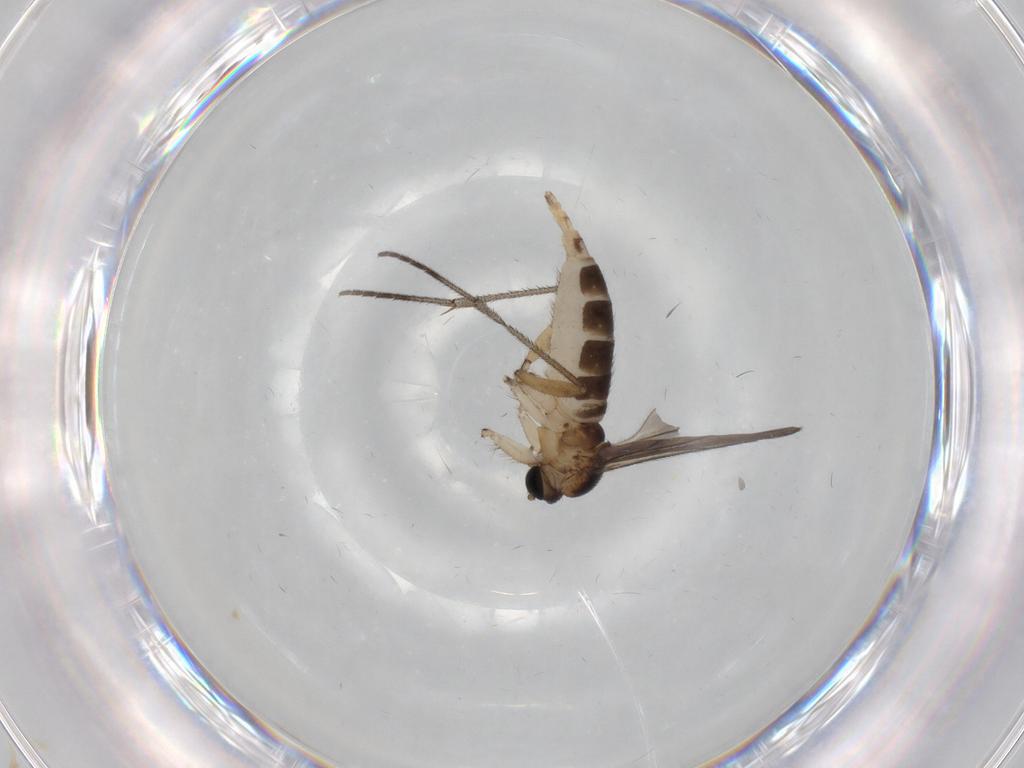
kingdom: Animalia
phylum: Arthropoda
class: Insecta
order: Diptera
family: Sciaridae
